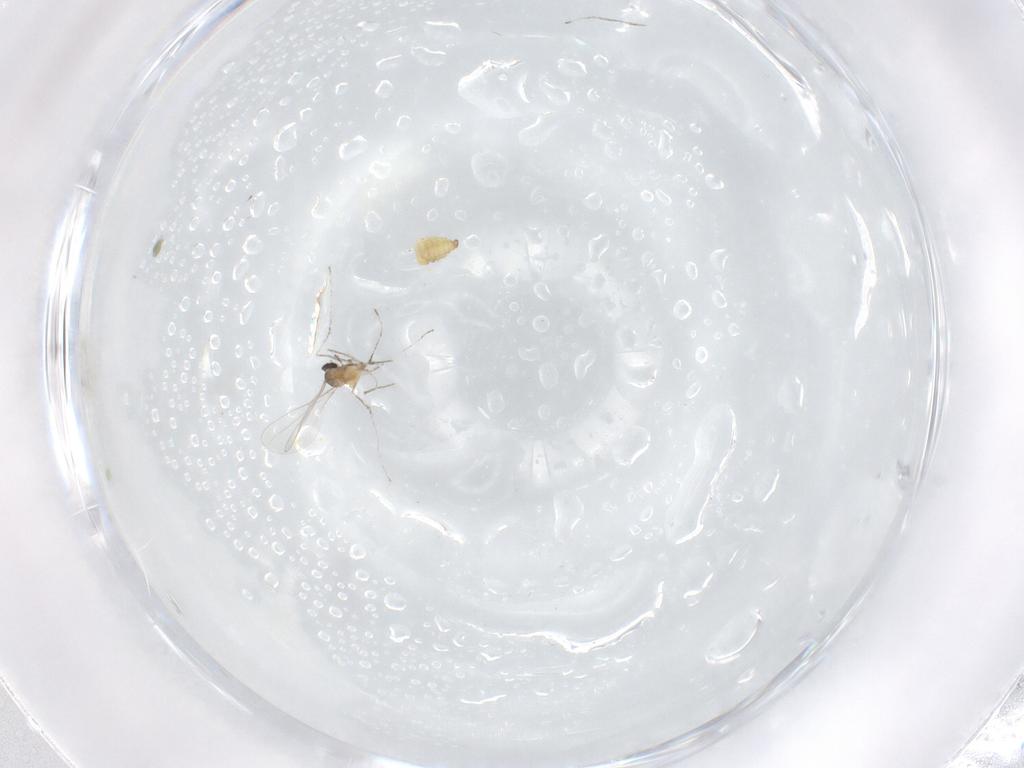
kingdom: Animalia
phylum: Arthropoda
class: Insecta
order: Diptera
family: Cecidomyiidae
